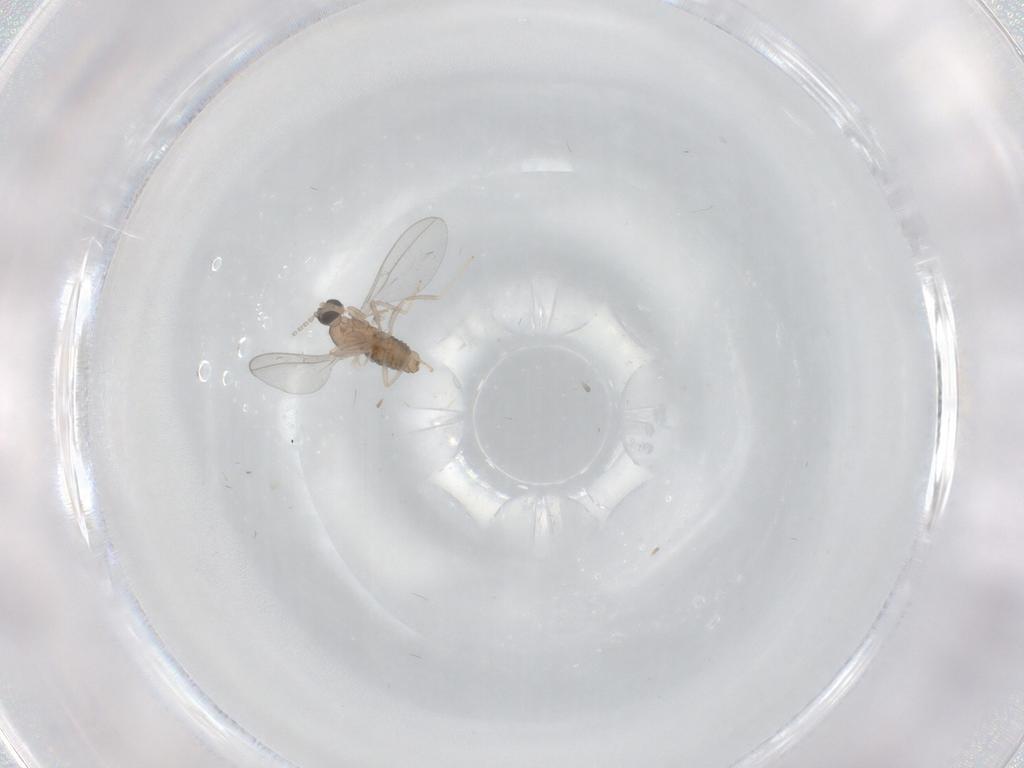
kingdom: Animalia
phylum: Arthropoda
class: Insecta
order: Diptera
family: Cecidomyiidae
